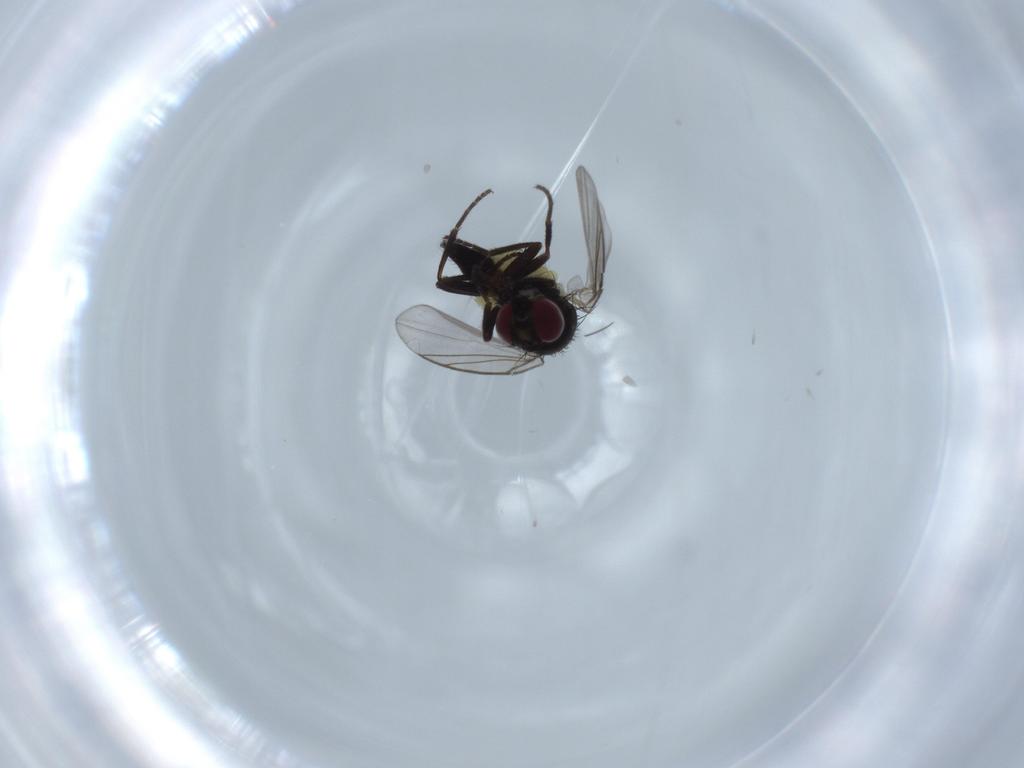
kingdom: Animalia
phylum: Arthropoda
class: Insecta
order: Diptera
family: Agromyzidae
